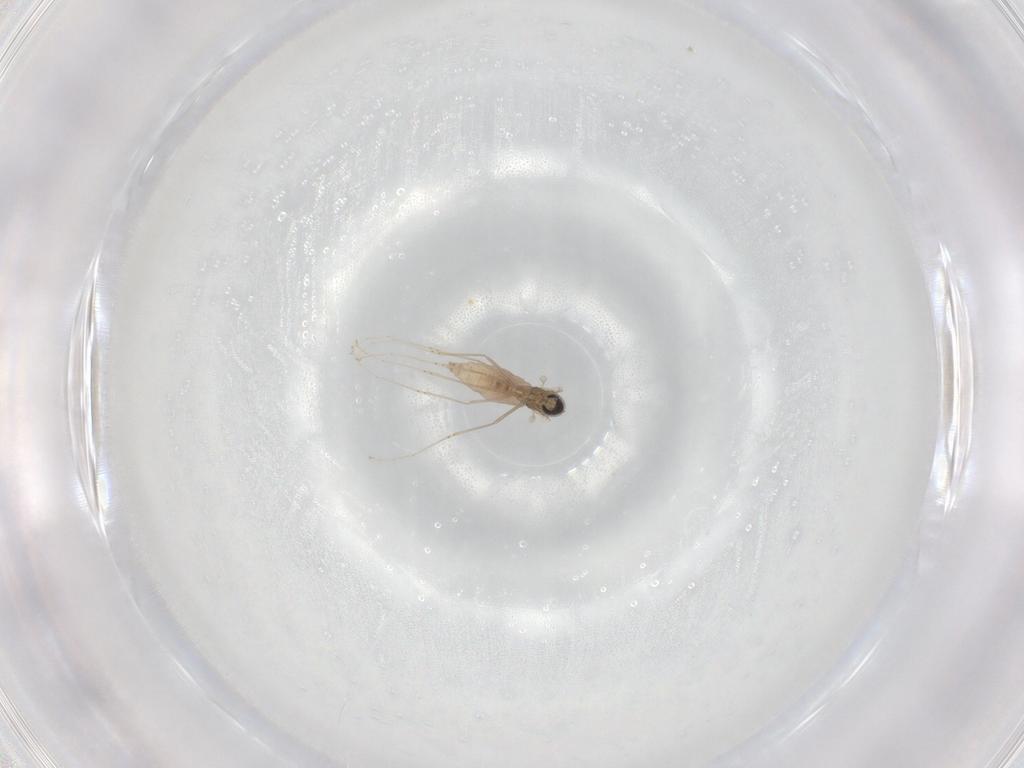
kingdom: Animalia
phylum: Arthropoda
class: Insecta
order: Diptera
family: Cecidomyiidae
